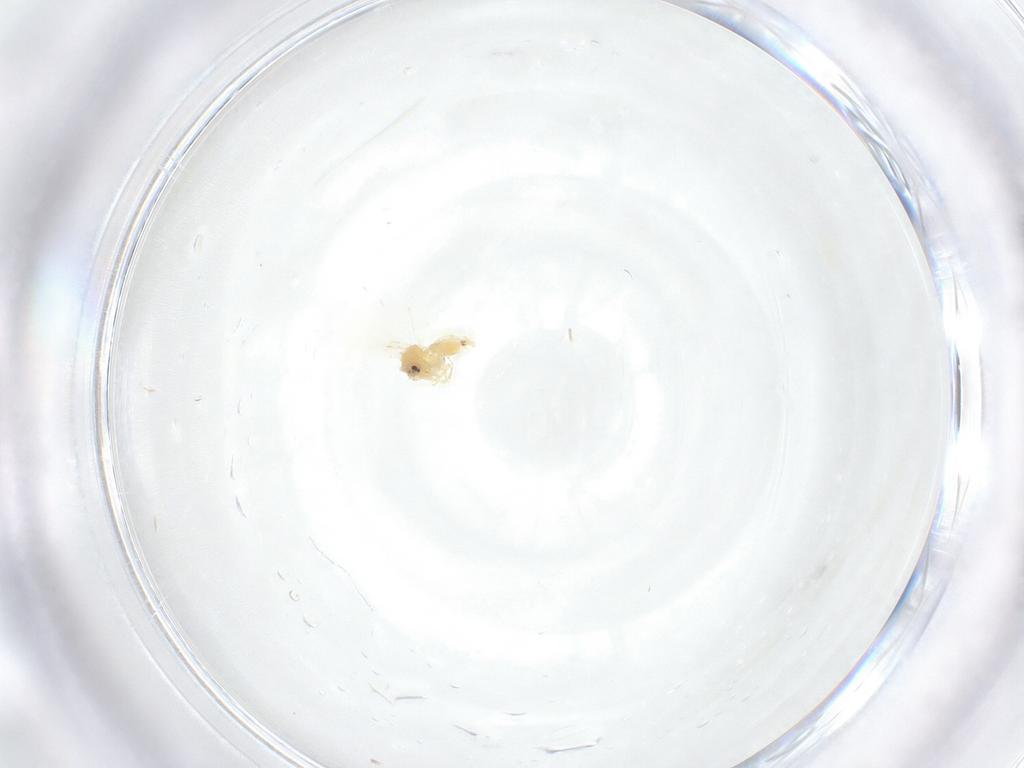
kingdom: Animalia
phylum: Arthropoda
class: Insecta
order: Hemiptera
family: Aleyrodidae
